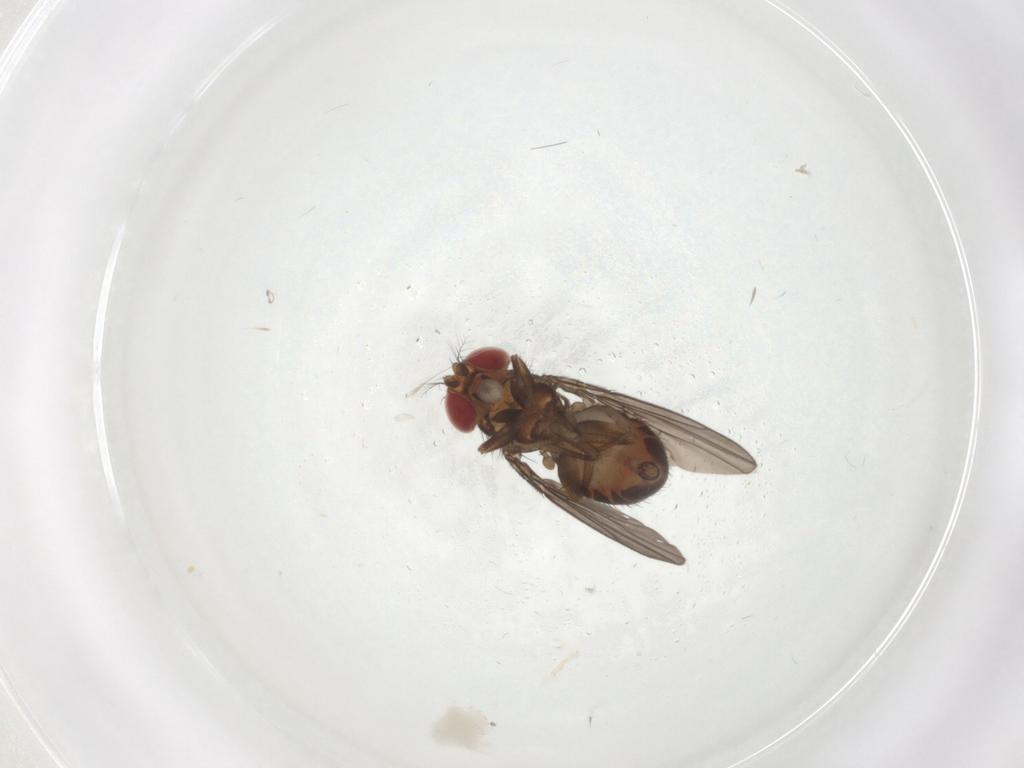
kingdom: Animalia
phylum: Arthropoda
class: Insecta
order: Diptera
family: Drosophilidae
